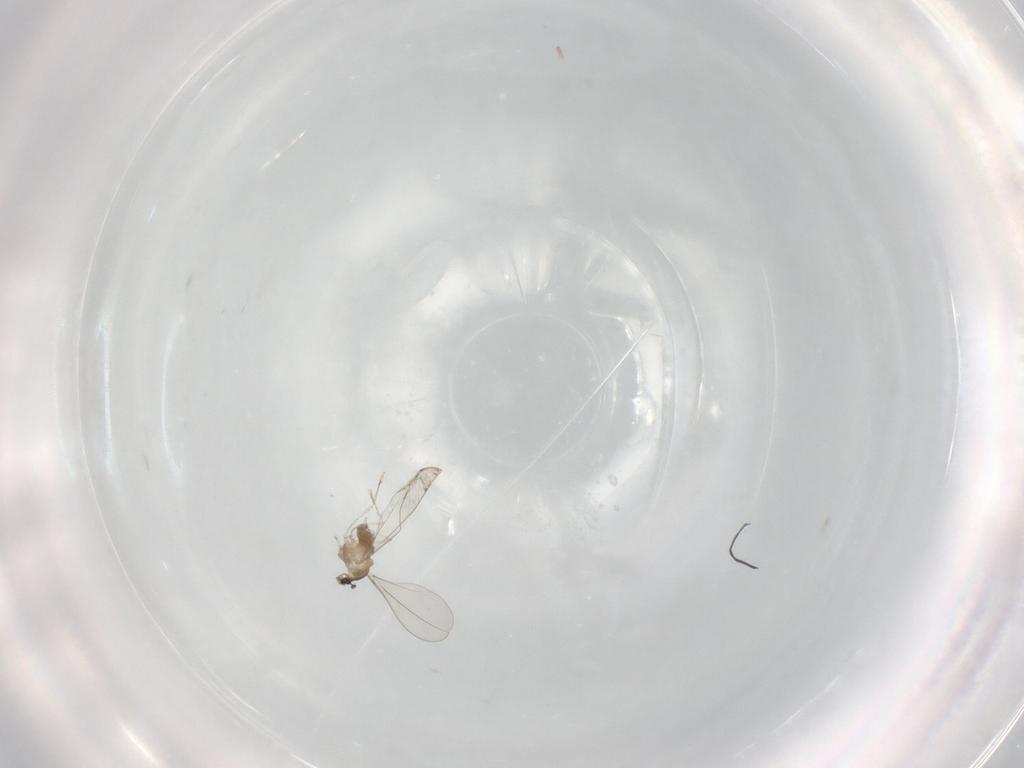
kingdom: Animalia
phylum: Arthropoda
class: Insecta
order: Diptera
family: Cecidomyiidae
